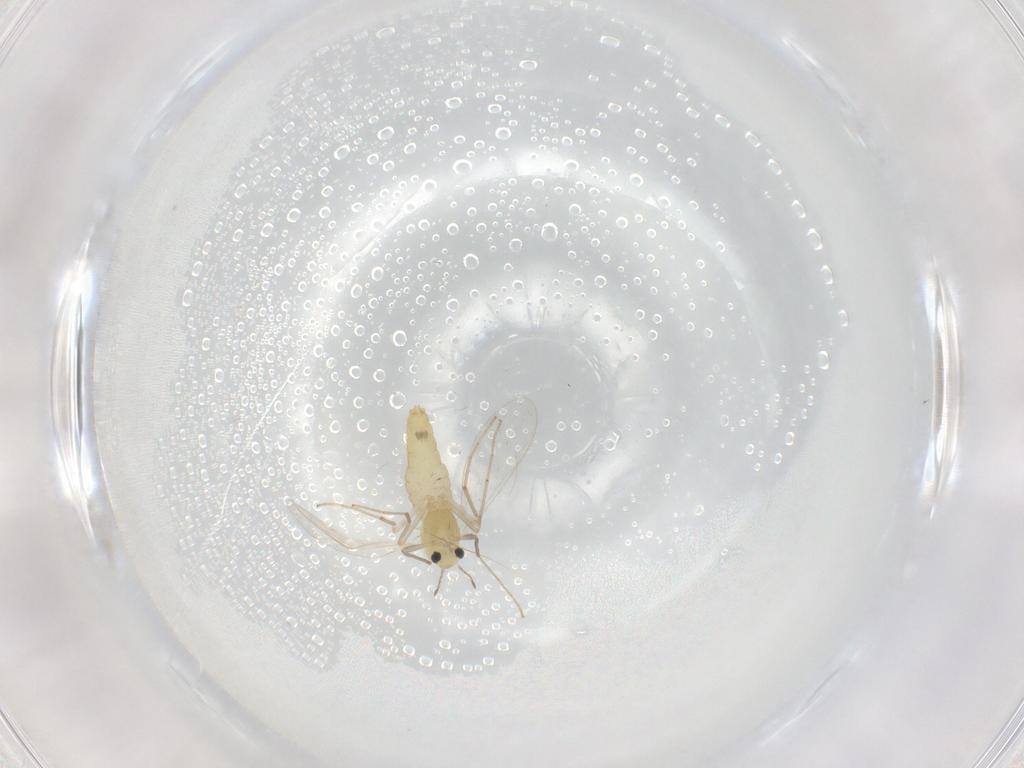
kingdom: Animalia
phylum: Arthropoda
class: Insecta
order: Diptera
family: Chironomidae
